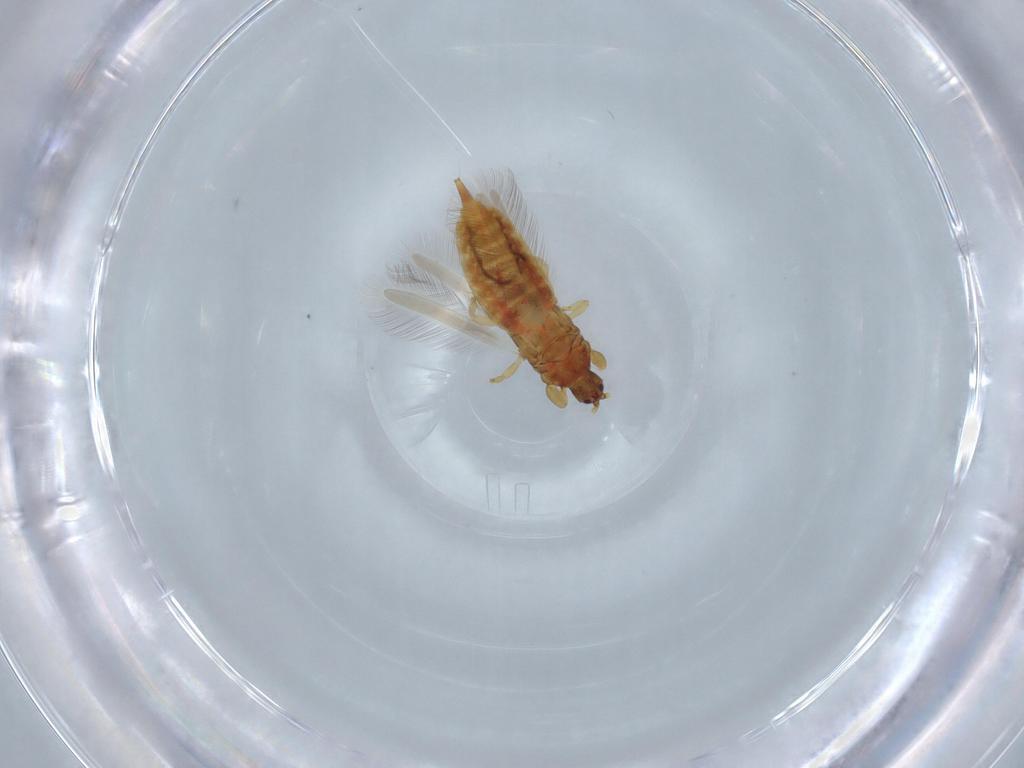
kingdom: Animalia
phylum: Arthropoda
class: Insecta
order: Thysanoptera
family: Phlaeothripidae
